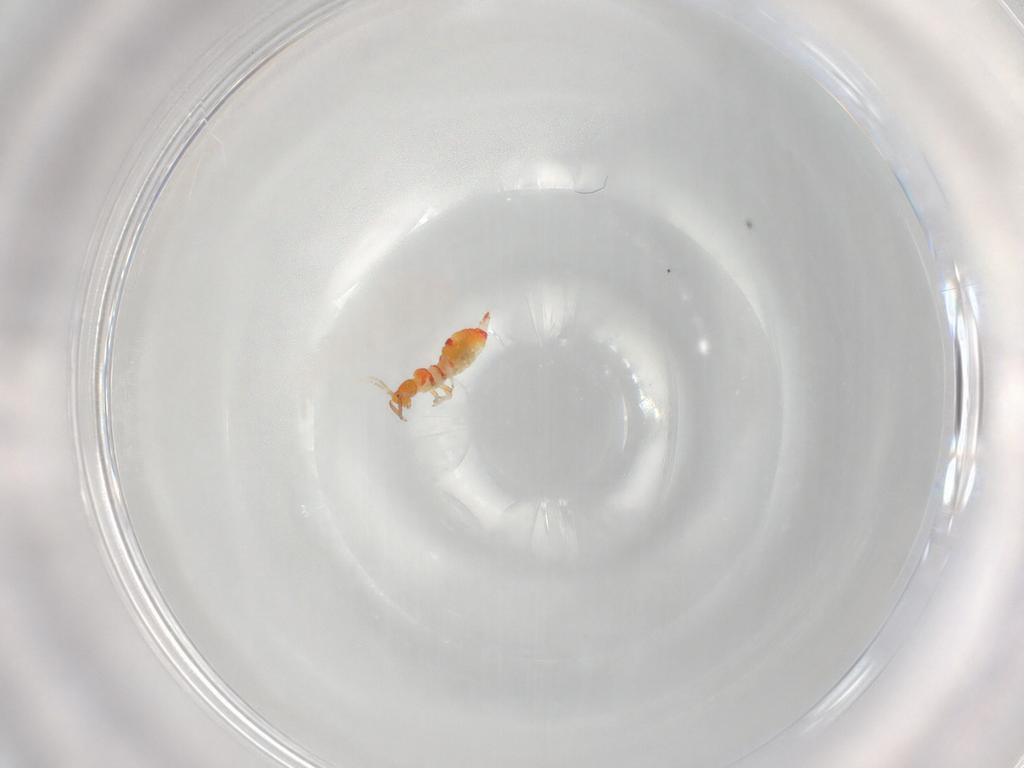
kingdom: Animalia
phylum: Arthropoda
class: Insecta
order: Thysanoptera
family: Aeolothripidae
